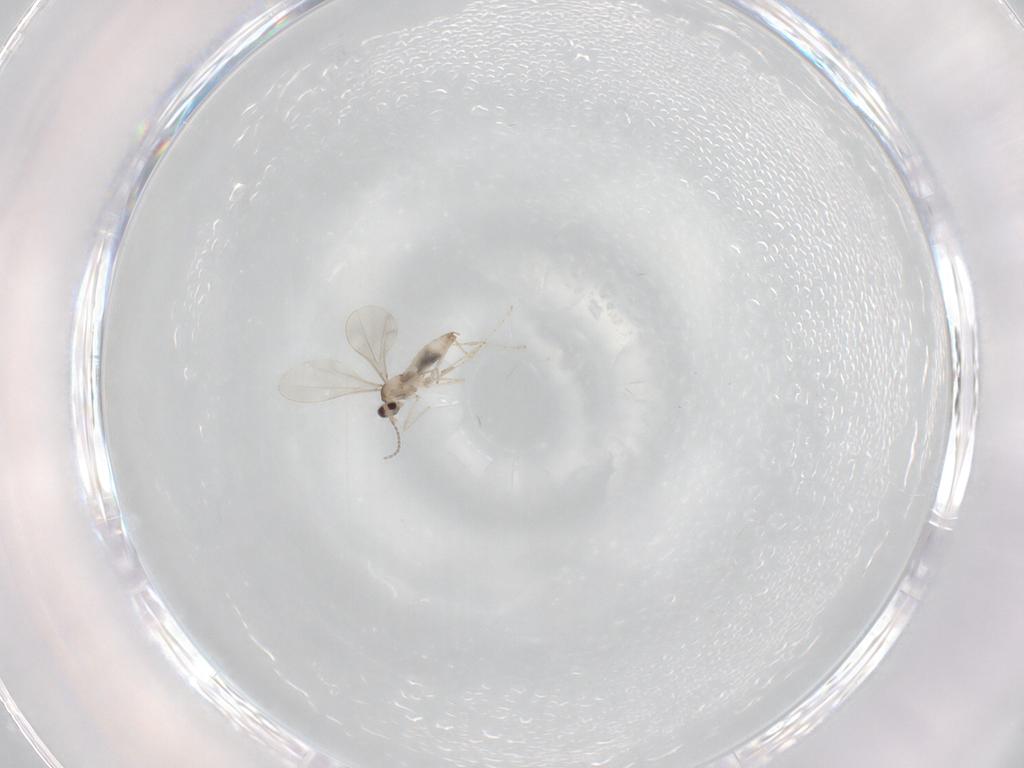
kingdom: Animalia
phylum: Arthropoda
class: Insecta
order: Diptera
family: Cecidomyiidae
